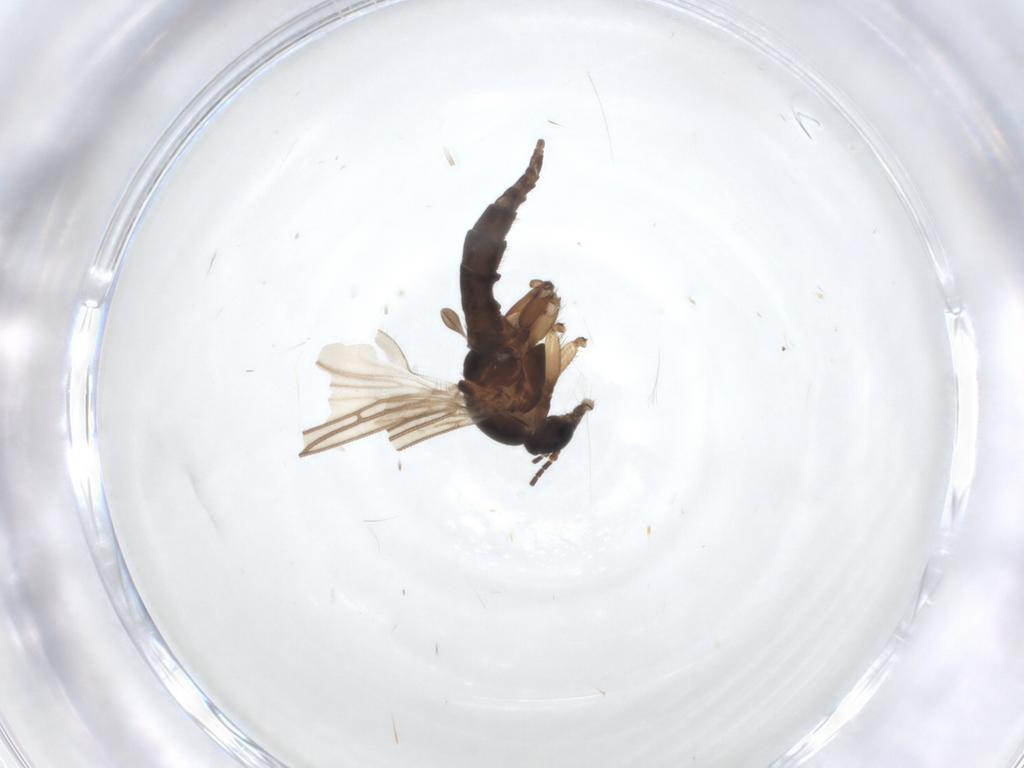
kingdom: Animalia
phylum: Arthropoda
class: Insecta
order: Diptera
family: Sciaridae
